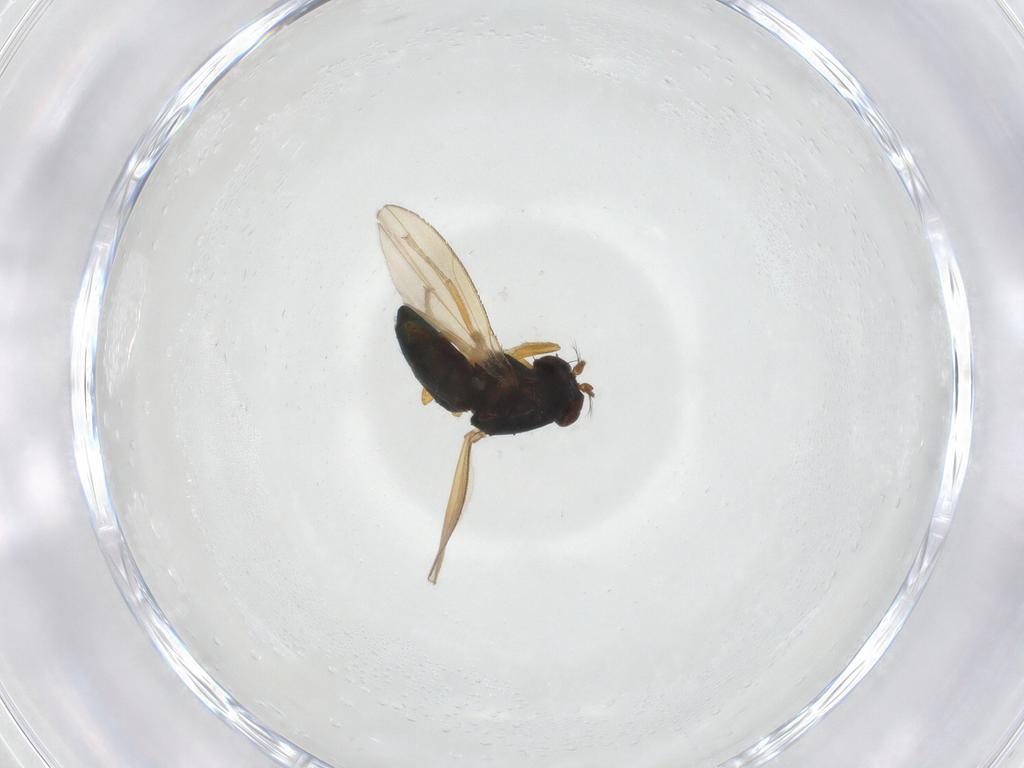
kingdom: Animalia
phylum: Arthropoda
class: Insecta
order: Diptera
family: Ephydridae
